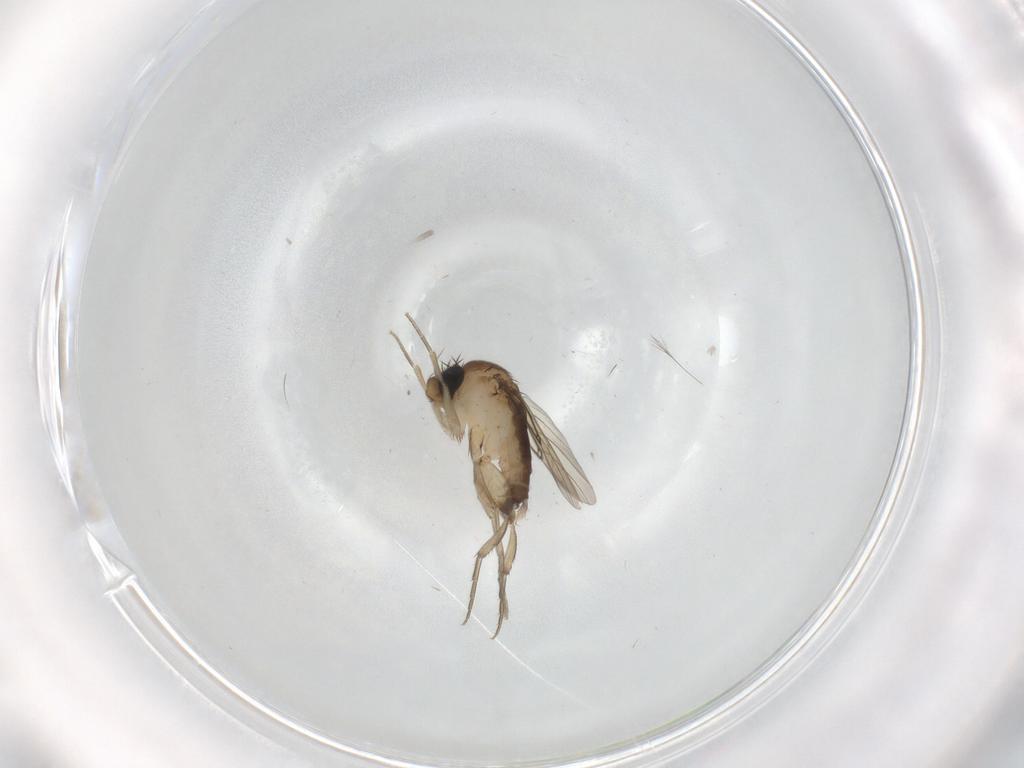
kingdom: Animalia
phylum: Arthropoda
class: Insecta
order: Diptera
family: Phoridae
